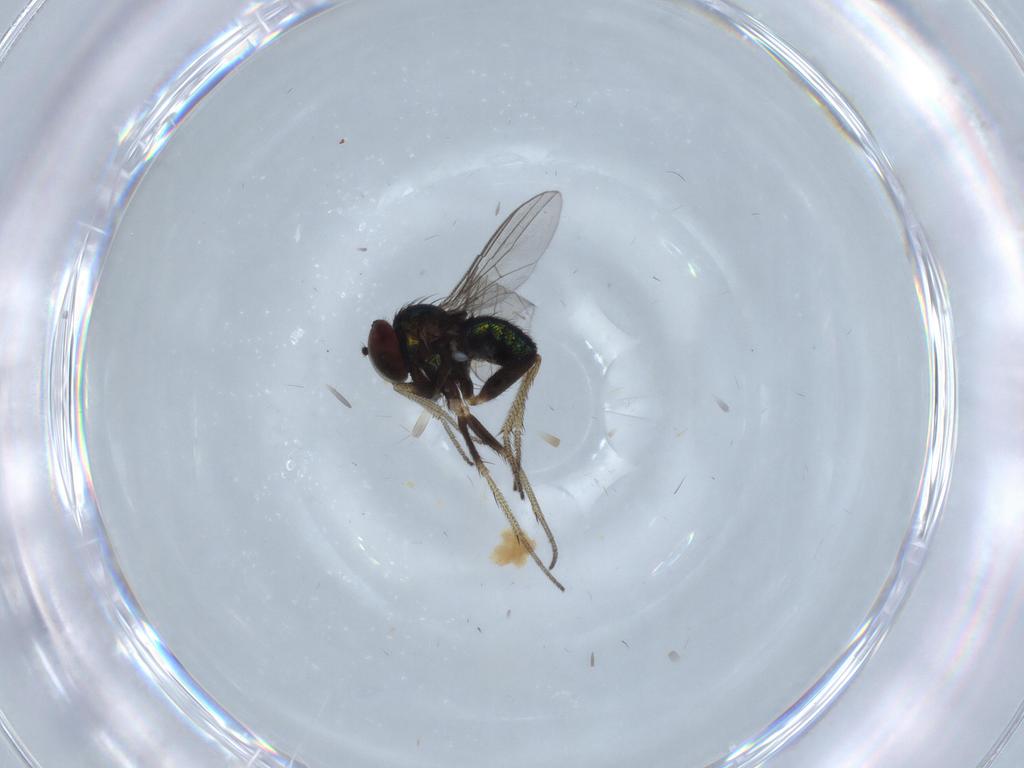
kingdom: Animalia
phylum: Arthropoda
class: Insecta
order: Diptera
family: Dolichopodidae
